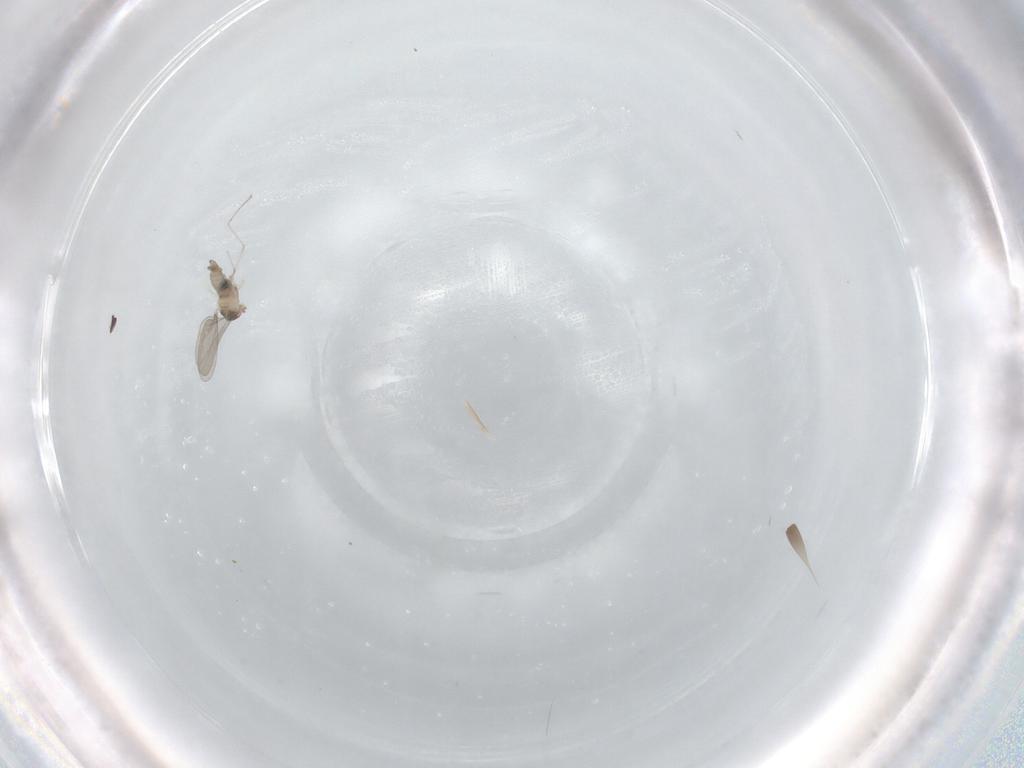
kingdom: Animalia
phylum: Arthropoda
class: Insecta
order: Diptera
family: Cecidomyiidae
